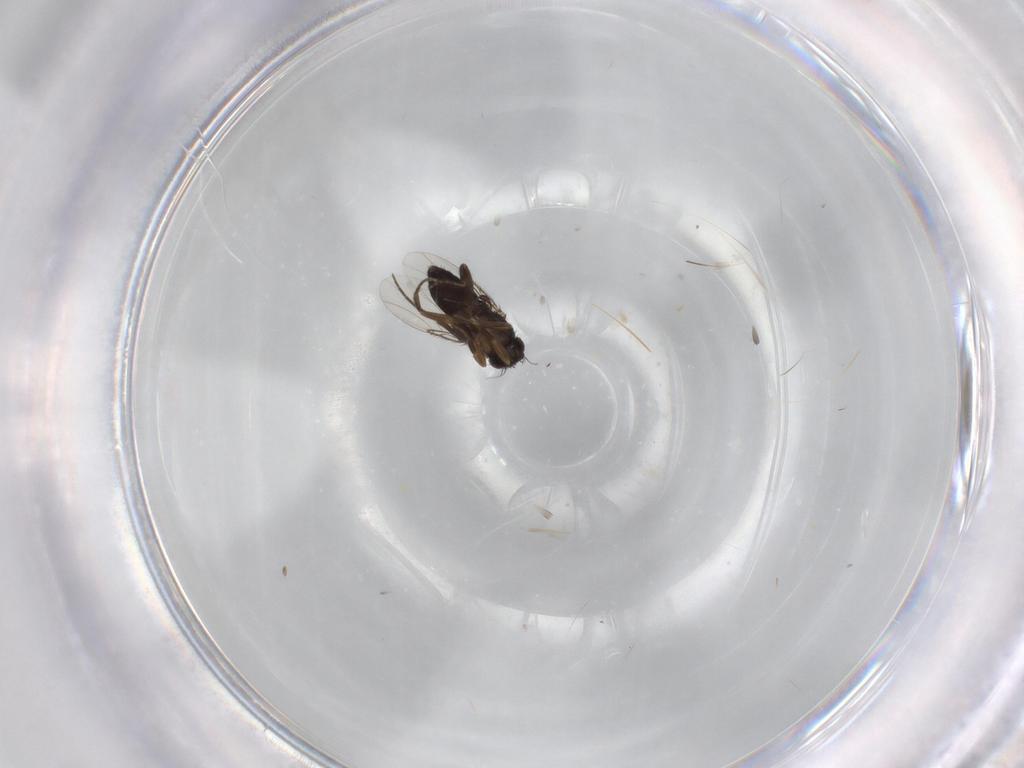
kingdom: Animalia
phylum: Arthropoda
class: Insecta
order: Diptera
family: Phoridae
